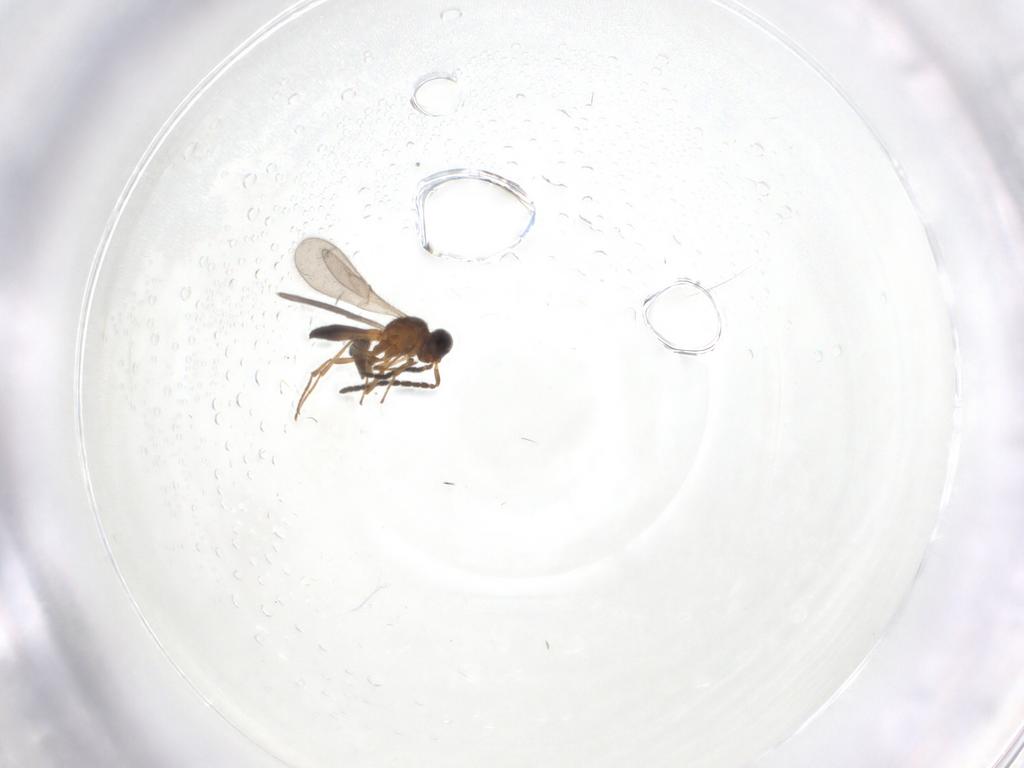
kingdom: Animalia
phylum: Arthropoda
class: Insecta
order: Hymenoptera
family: Scelionidae
